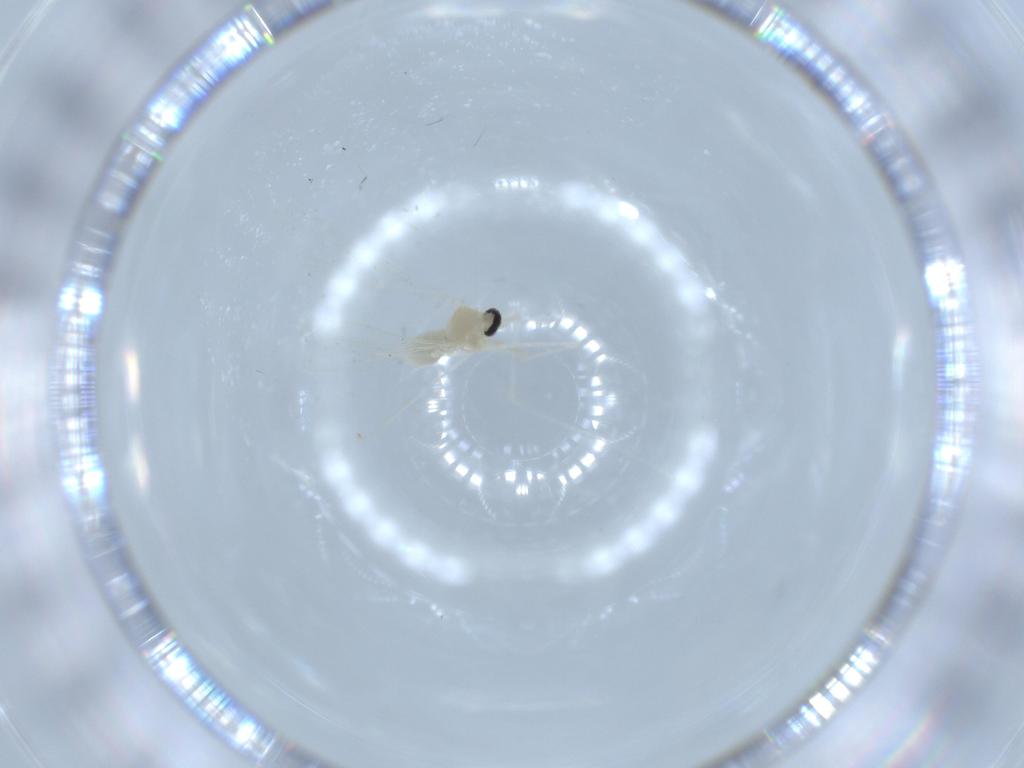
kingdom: Animalia
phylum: Arthropoda
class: Insecta
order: Diptera
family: Cecidomyiidae
